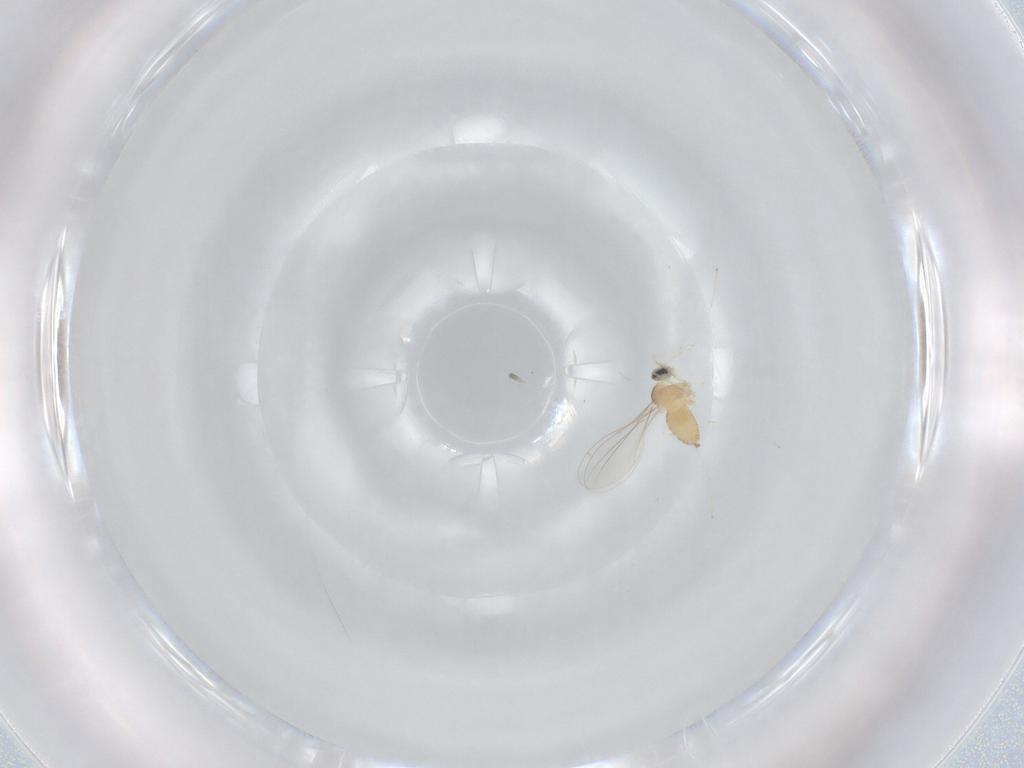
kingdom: Animalia
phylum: Arthropoda
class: Insecta
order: Diptera
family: Cecidomyiidae
